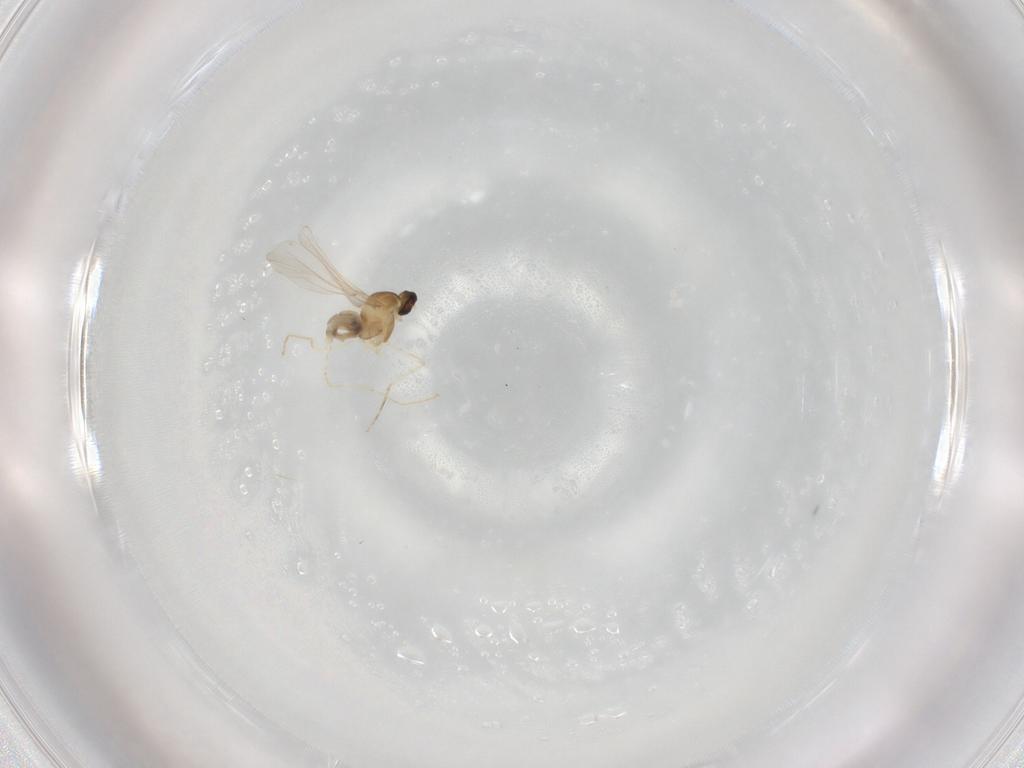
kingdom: Animalia
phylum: Arthropoda
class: Insecta
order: Diptera
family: Cecidomyiidae
